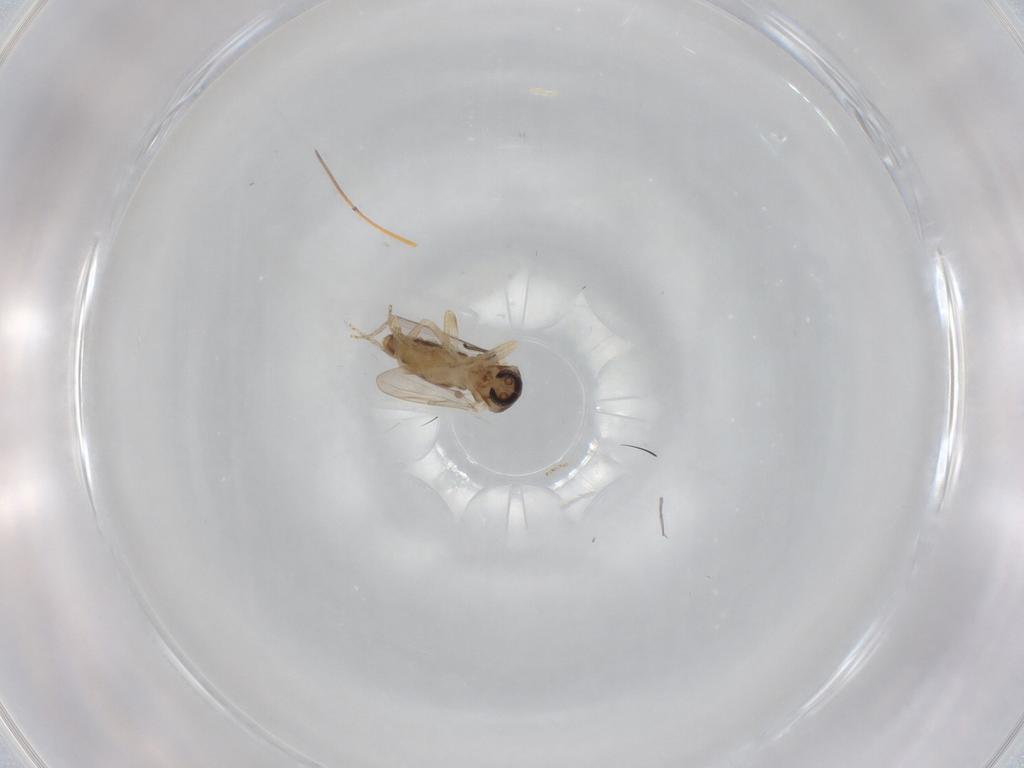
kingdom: Animalia
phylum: Arthropoda
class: Insecta
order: Diptera
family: Ceratopogonidae
